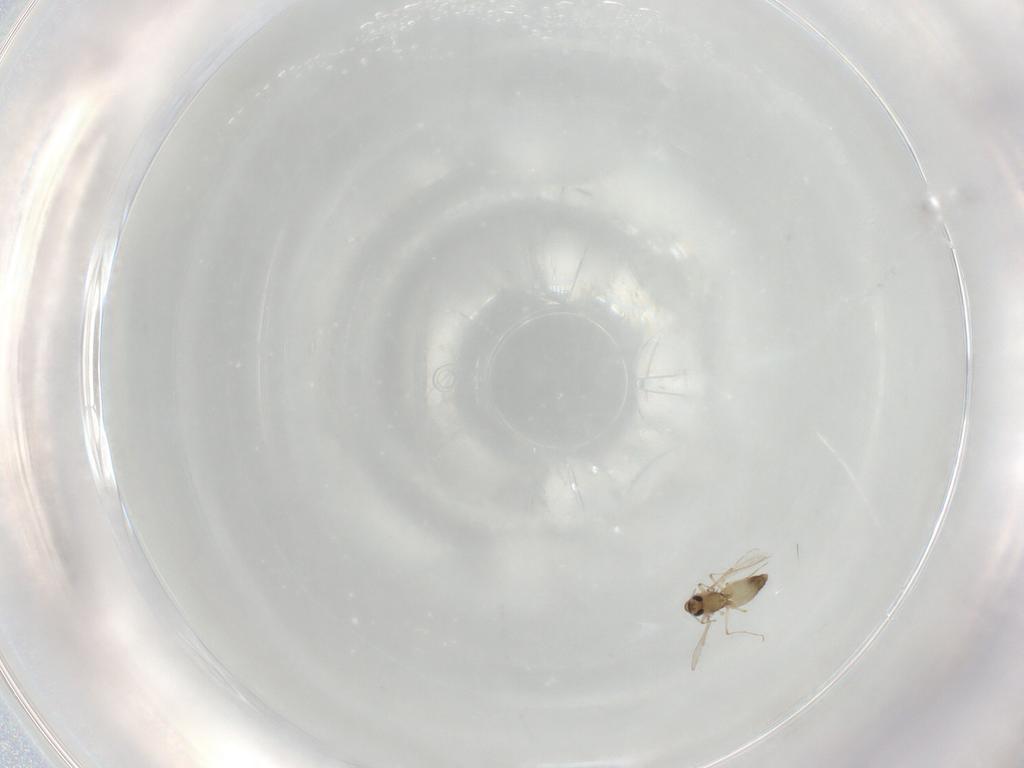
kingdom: Animalia
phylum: Arthropoda
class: Insecta
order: Diptera
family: Chironomidae
